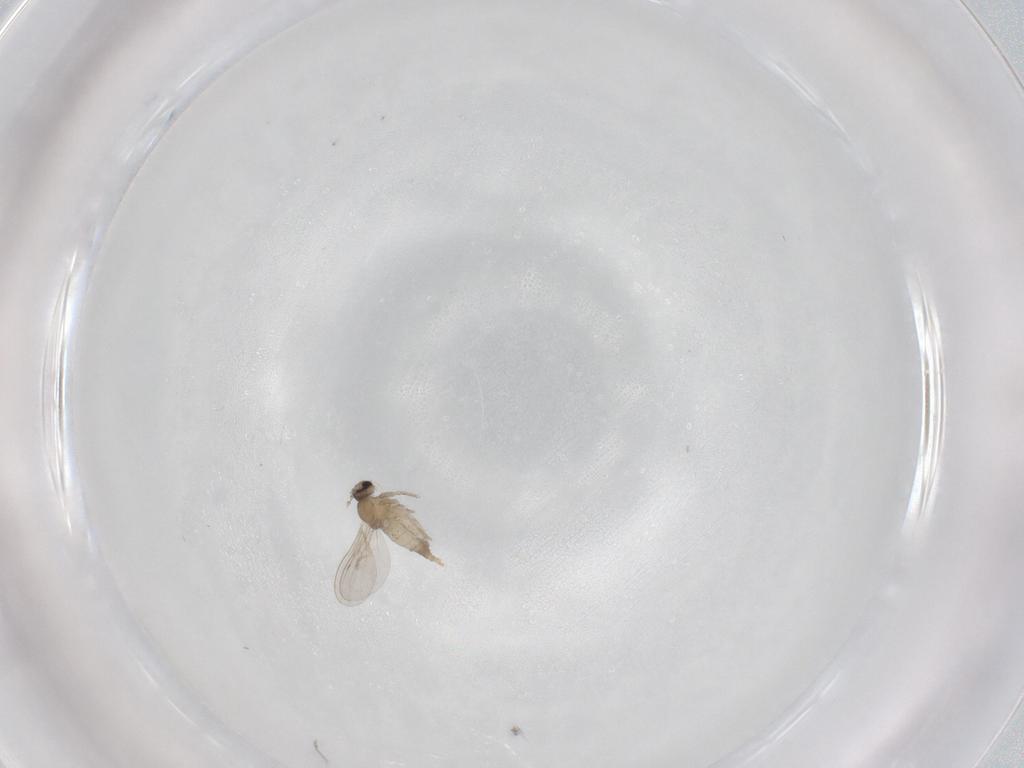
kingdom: Animalia
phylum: Arthropoda
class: Insecta
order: Diptera
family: Cecidomyiidae
